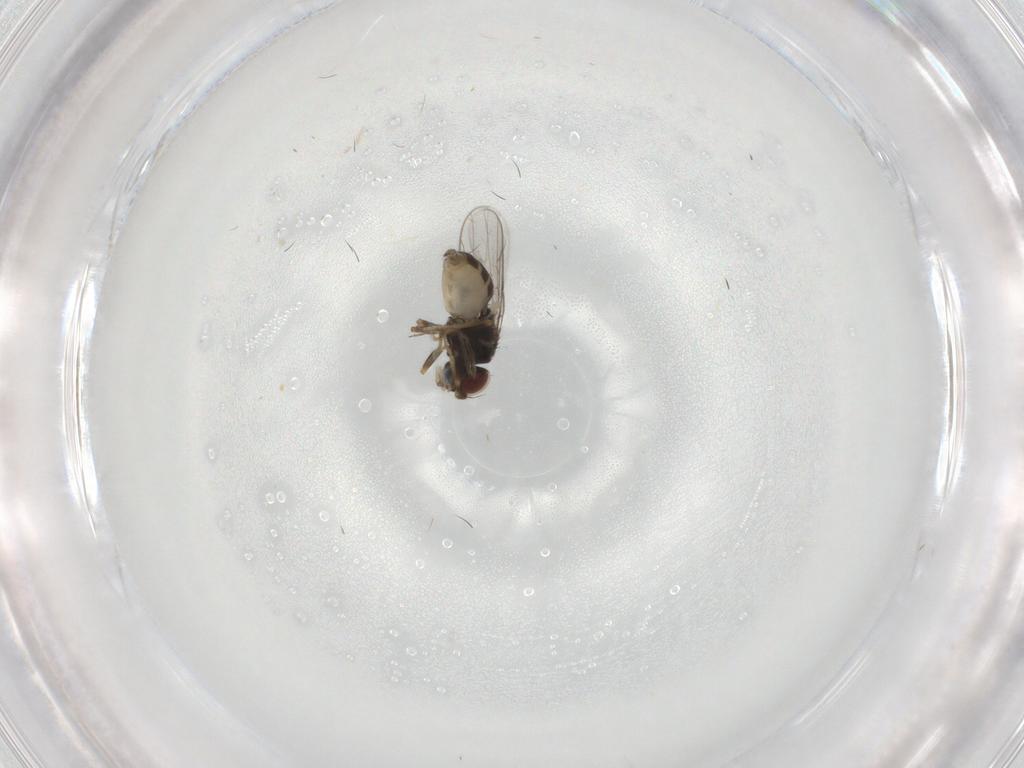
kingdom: Animalia
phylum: Arthropoda
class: Insecta
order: Diptera
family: Chloropidae
